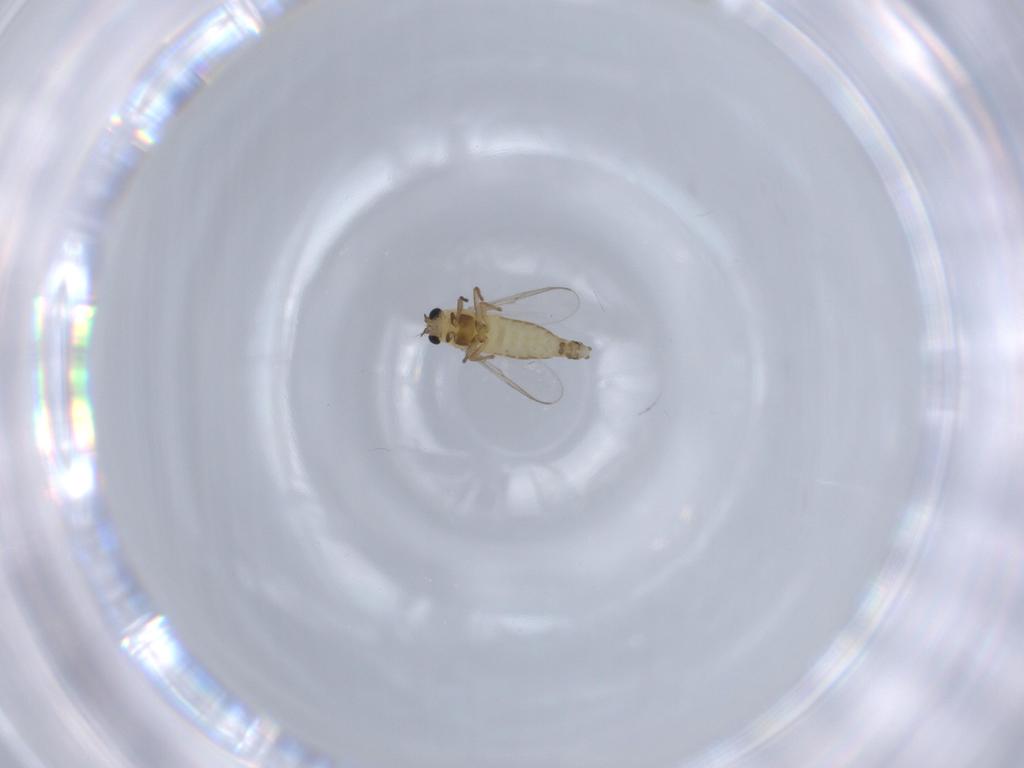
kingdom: Animalia
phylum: Arthropoda
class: Insecta
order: Diptera
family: Chironomidae
